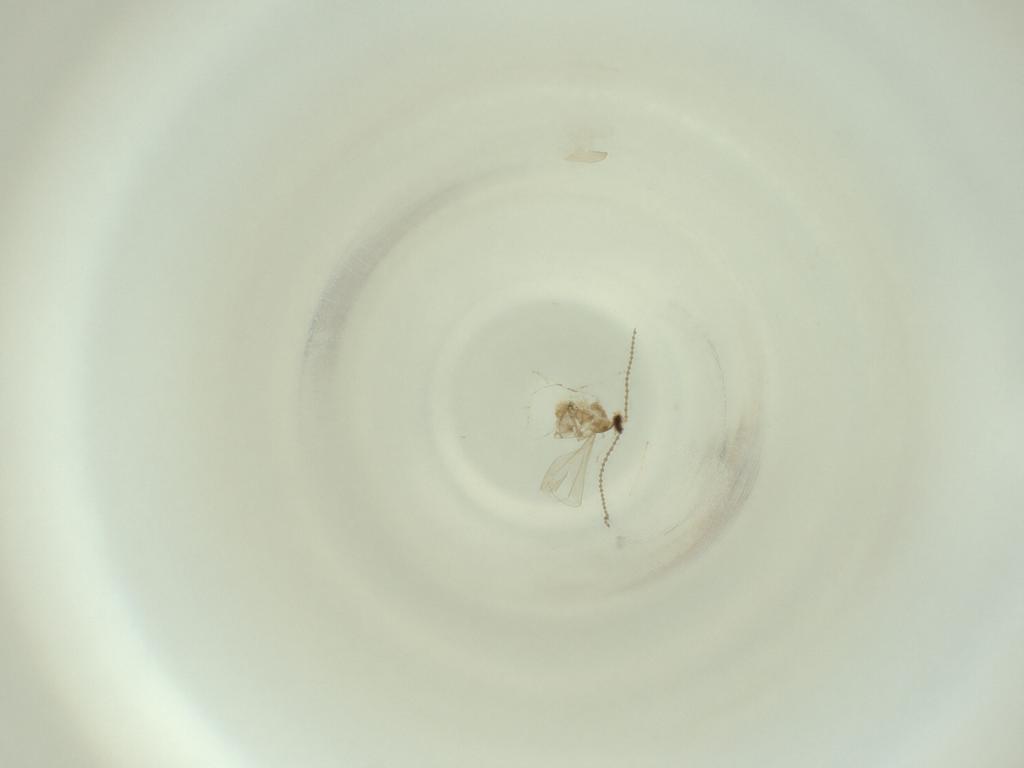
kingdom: Animalia
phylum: Arthropoda
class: Insecta
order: Diptera
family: Cecidomyiidae
